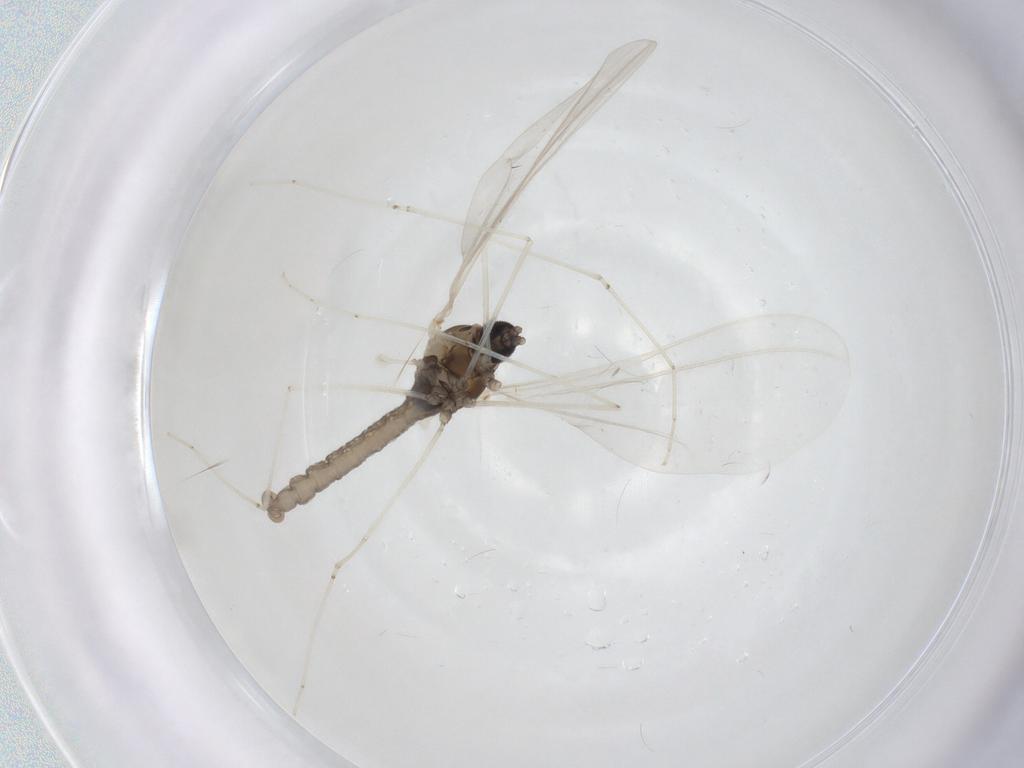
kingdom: Animalia
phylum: Arthropoda
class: Insecta
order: Diptera
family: Cecidomyiidae
